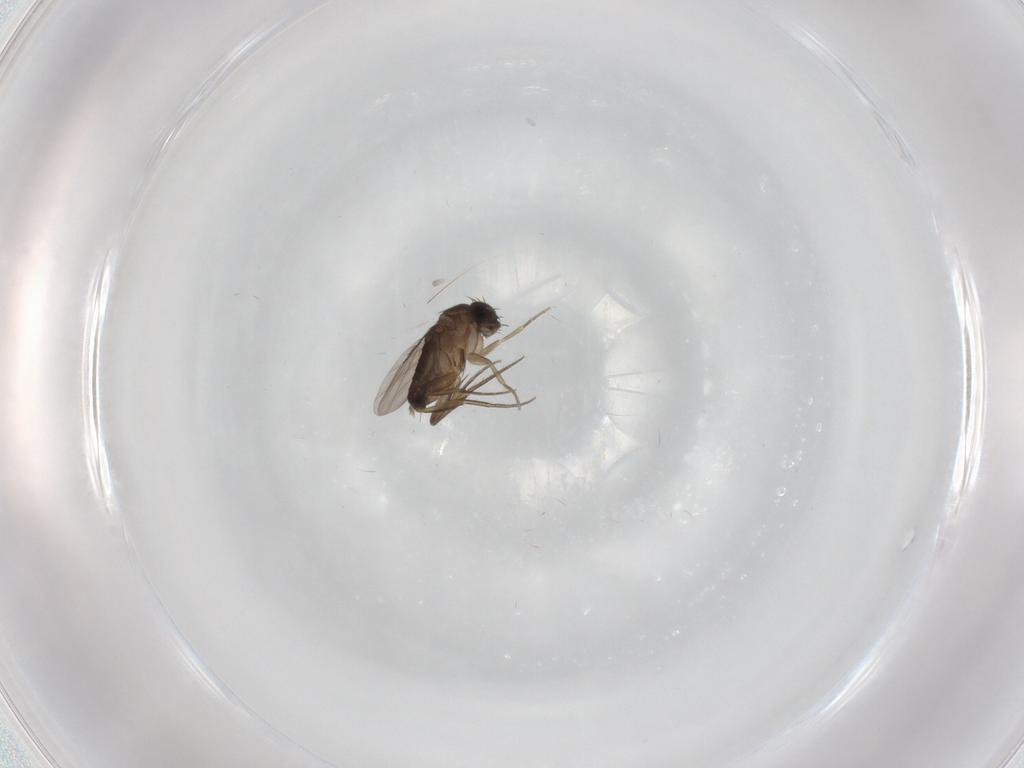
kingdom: Animalia
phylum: Arthropoda
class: Insecta
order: Diptera
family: Phoridae
